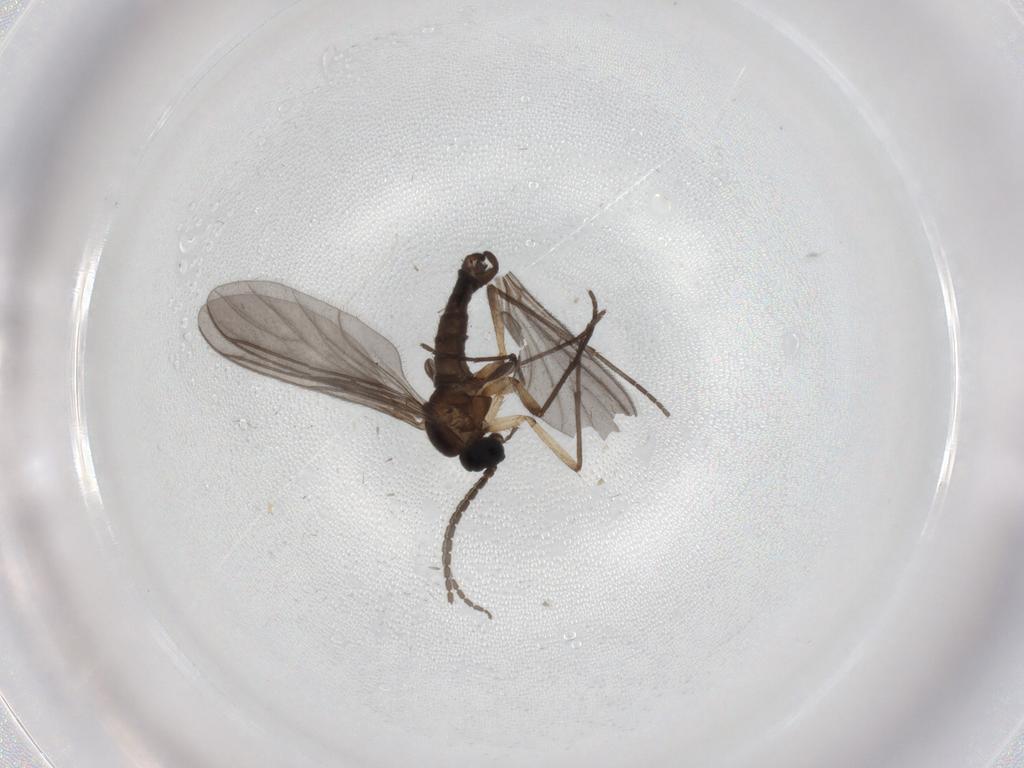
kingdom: Animalia
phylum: Arthropoda
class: Insecta
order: Diptera
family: Sciaridae
